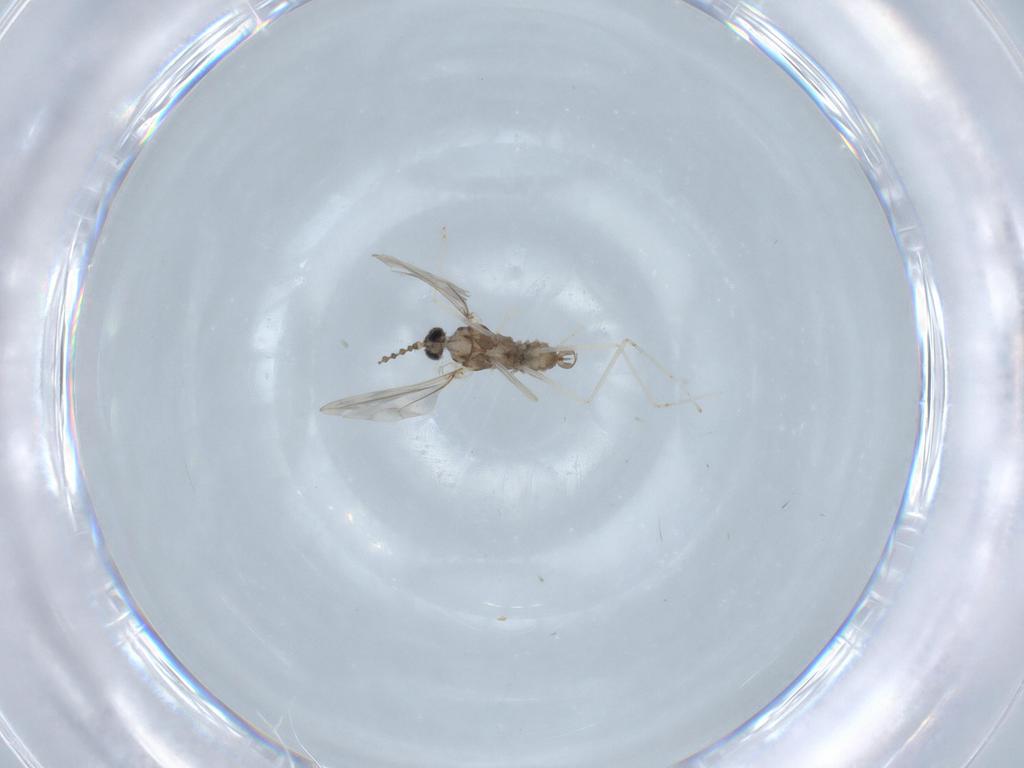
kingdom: Animalia
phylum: Arthropoda
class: Insecta
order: Diptera
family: Cecidomyiidae
